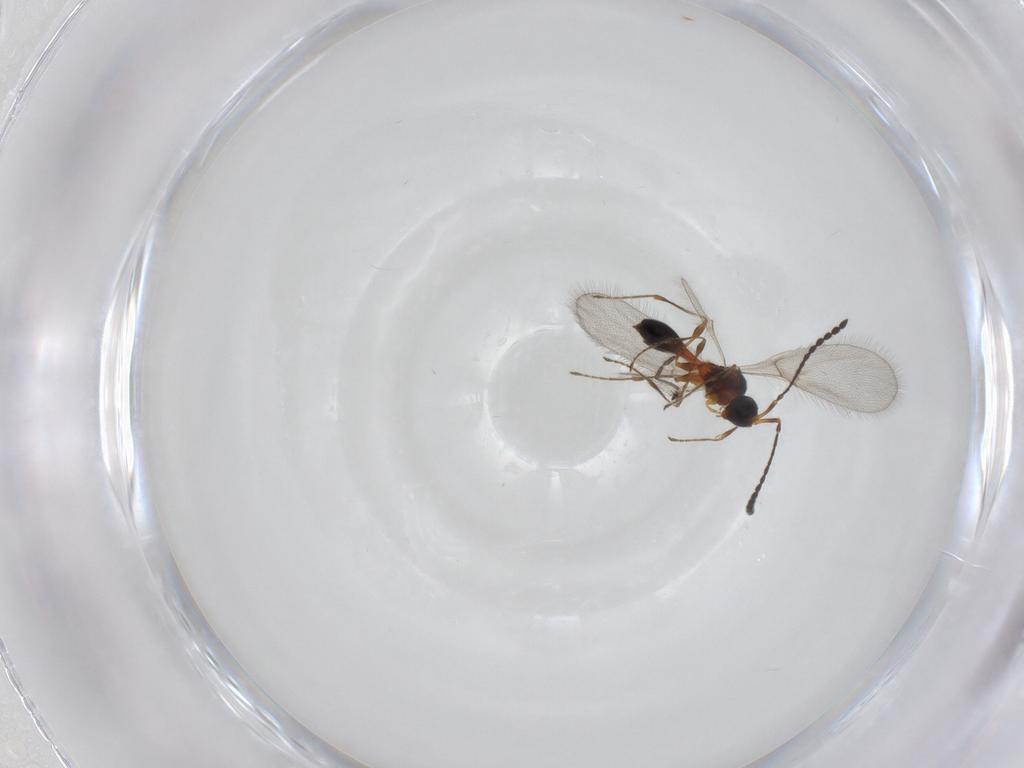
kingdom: Animalia
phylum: Arthropoda
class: Insecta
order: Hymenoptera
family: Diapriidae
